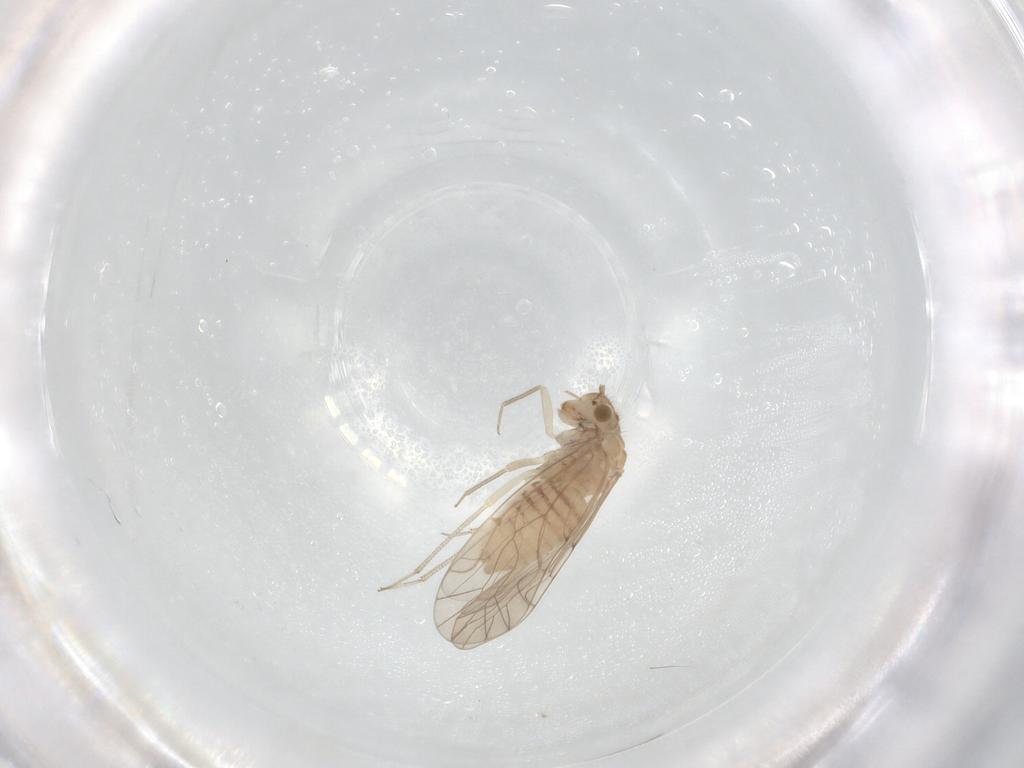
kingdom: Animalia
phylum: Arthropoda
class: Insecta
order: Psocodea
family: Lachesillidae
